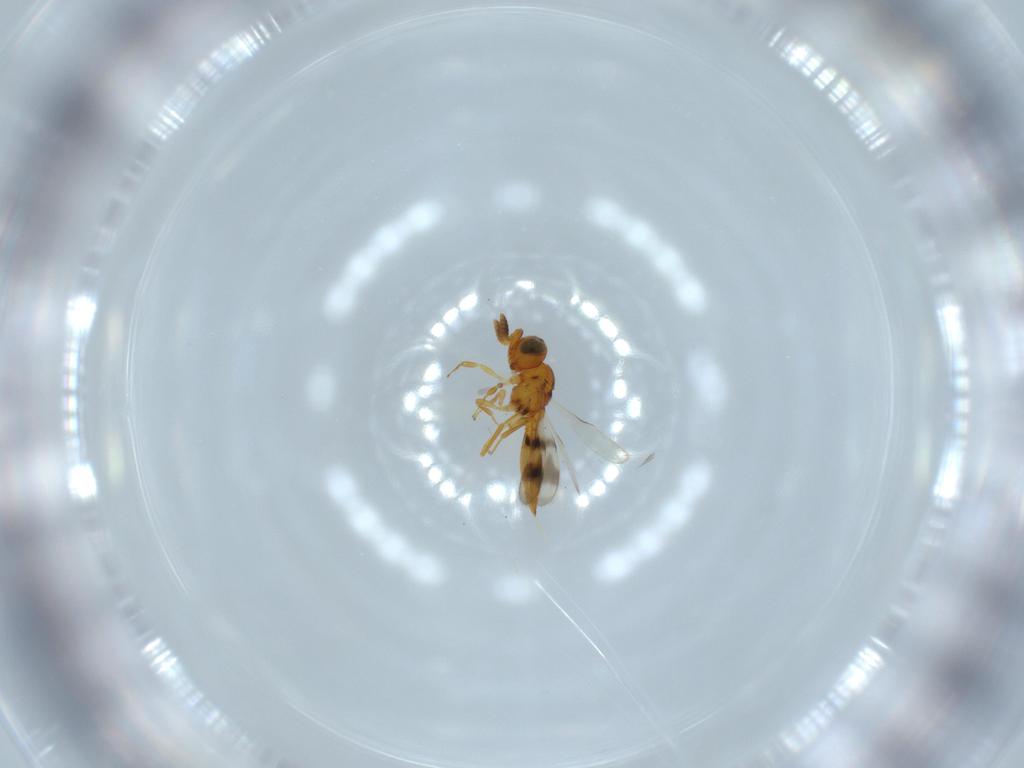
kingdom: Animalia
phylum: Arthropoda
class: Insecta
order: Hymenoptera
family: Scelionidae
